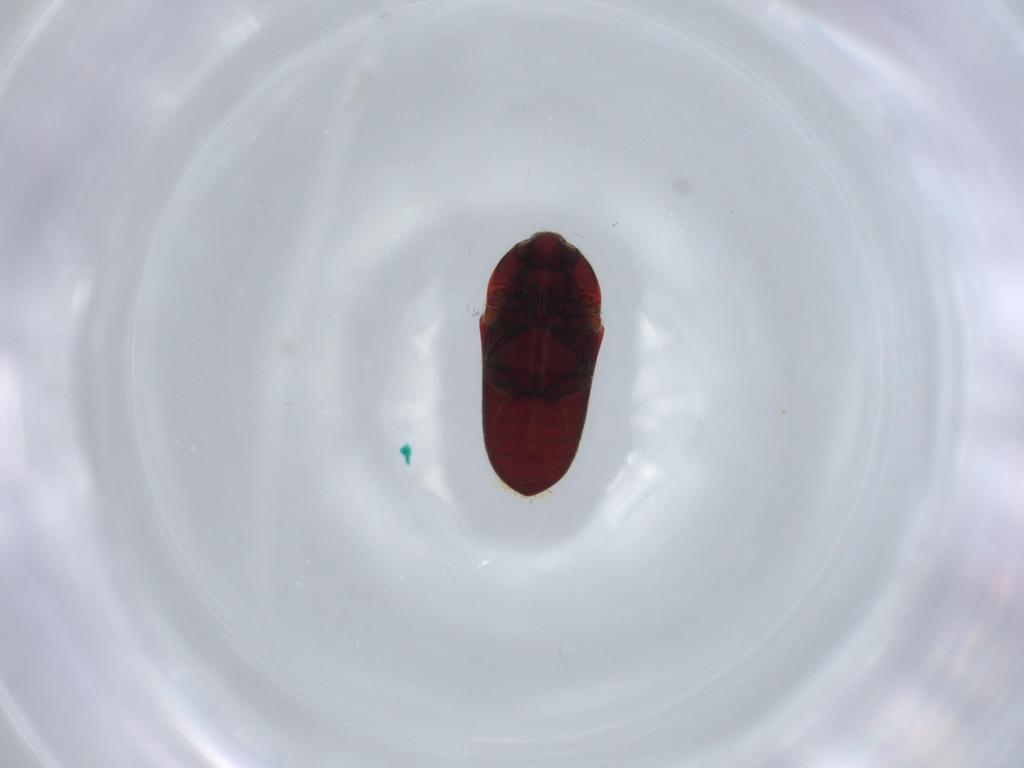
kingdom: Animalia
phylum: Arthropoda
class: Insecta
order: Coleoptera
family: Throscidae
